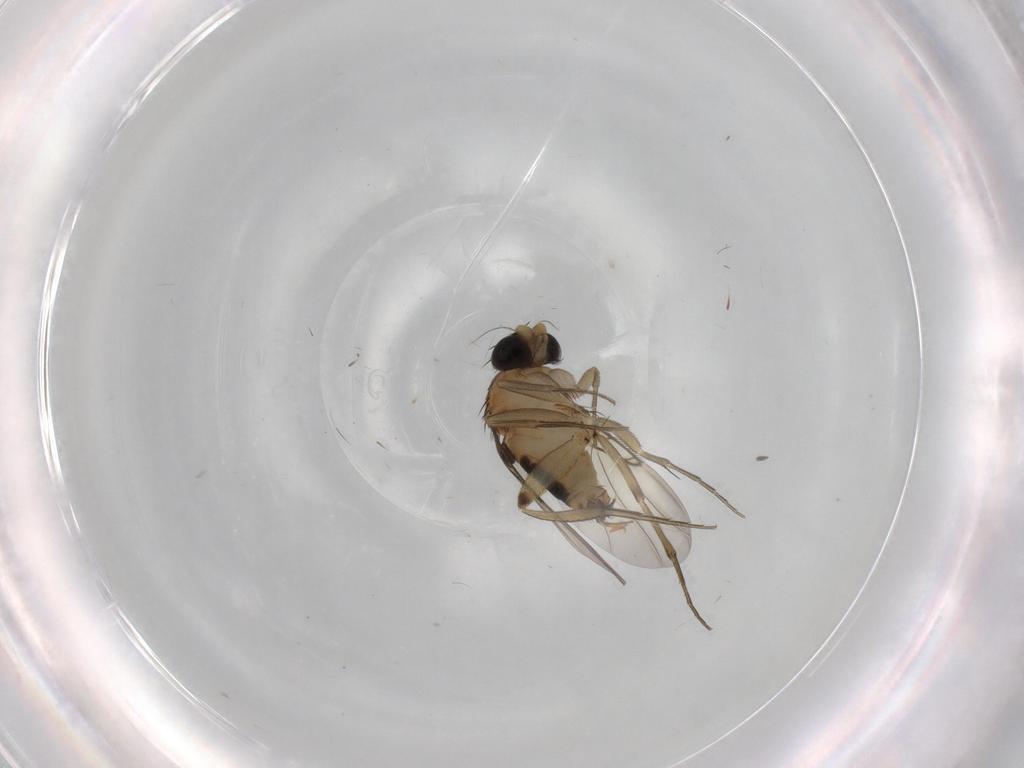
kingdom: Animalia
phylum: Arthropoda
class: Insecta
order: Diptera
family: Phoridae
